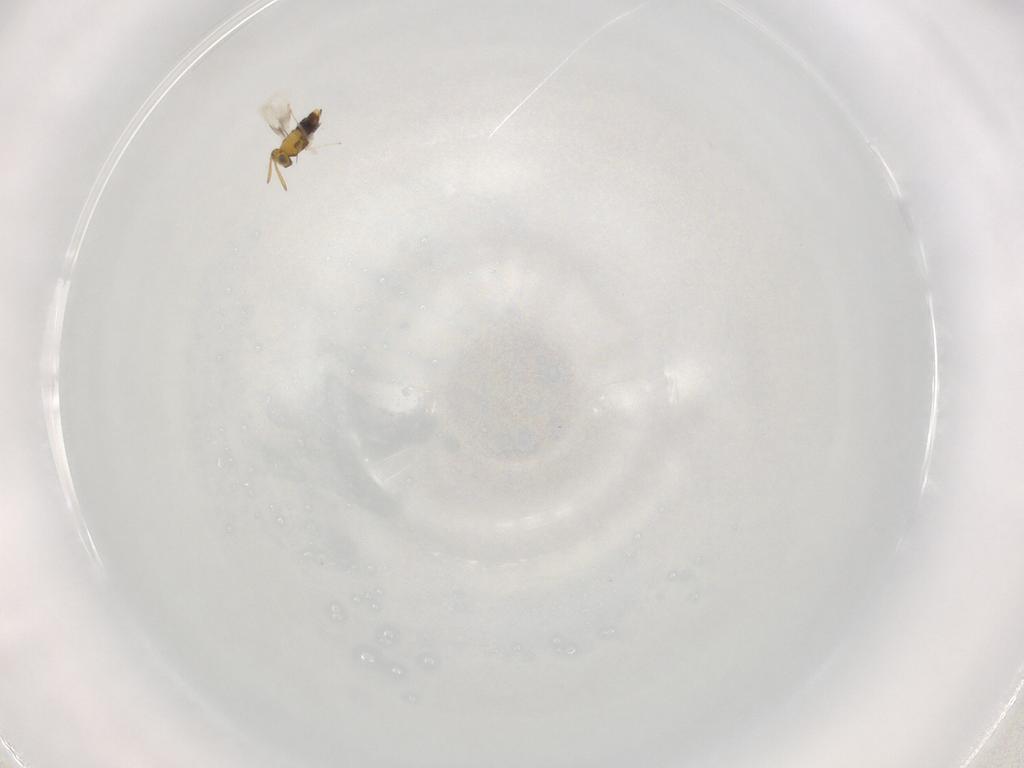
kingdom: Animalia
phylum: Arthropoda
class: Insecta
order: Hymenoptera
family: Aphelinidae
